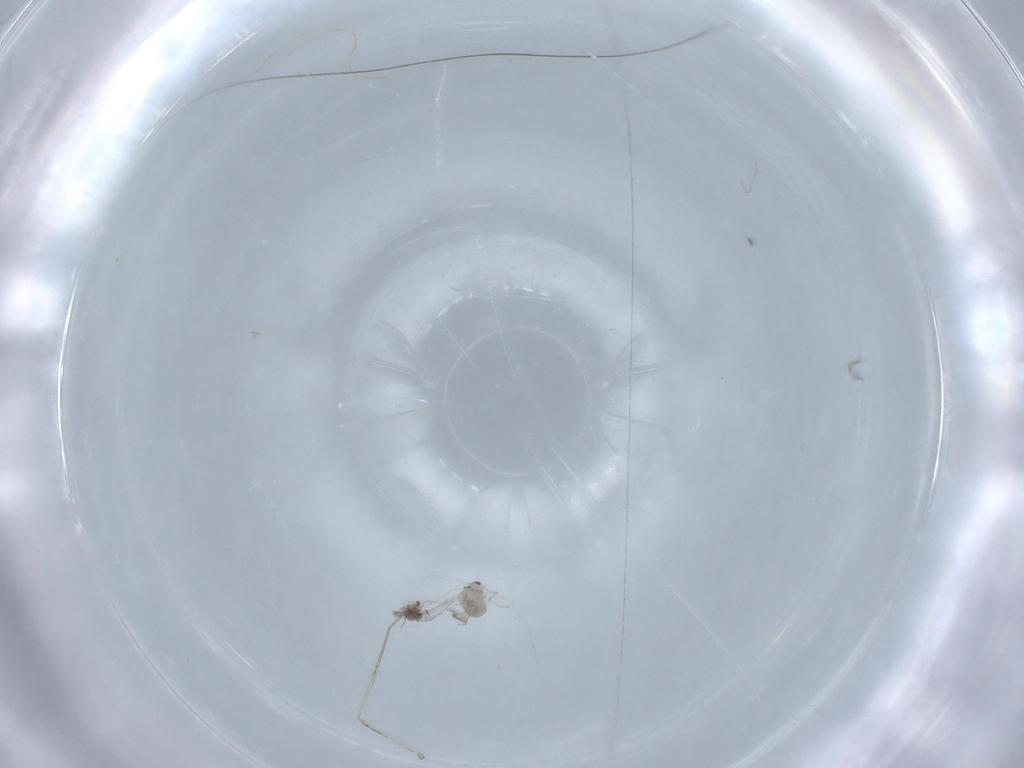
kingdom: Animalia
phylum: Arthropoda
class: Insecta
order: Diptera
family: Cecidomyiidae
